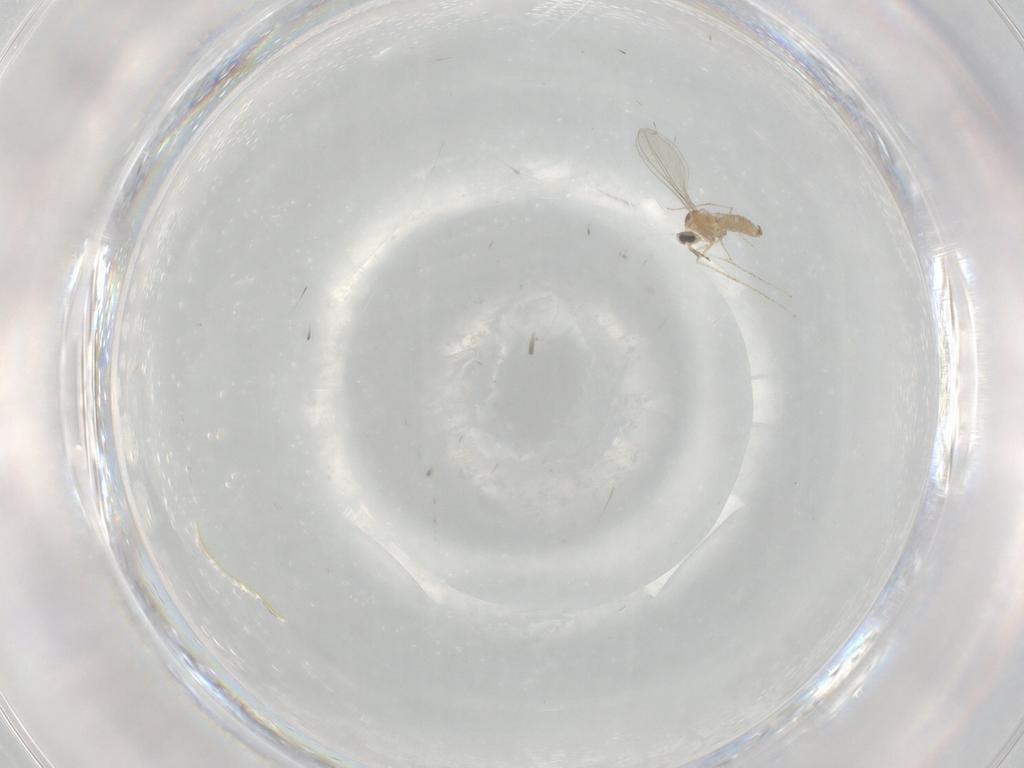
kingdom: Animalia
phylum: Arthropoda
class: Insecta
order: Diptera
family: Cecidomyiidae
